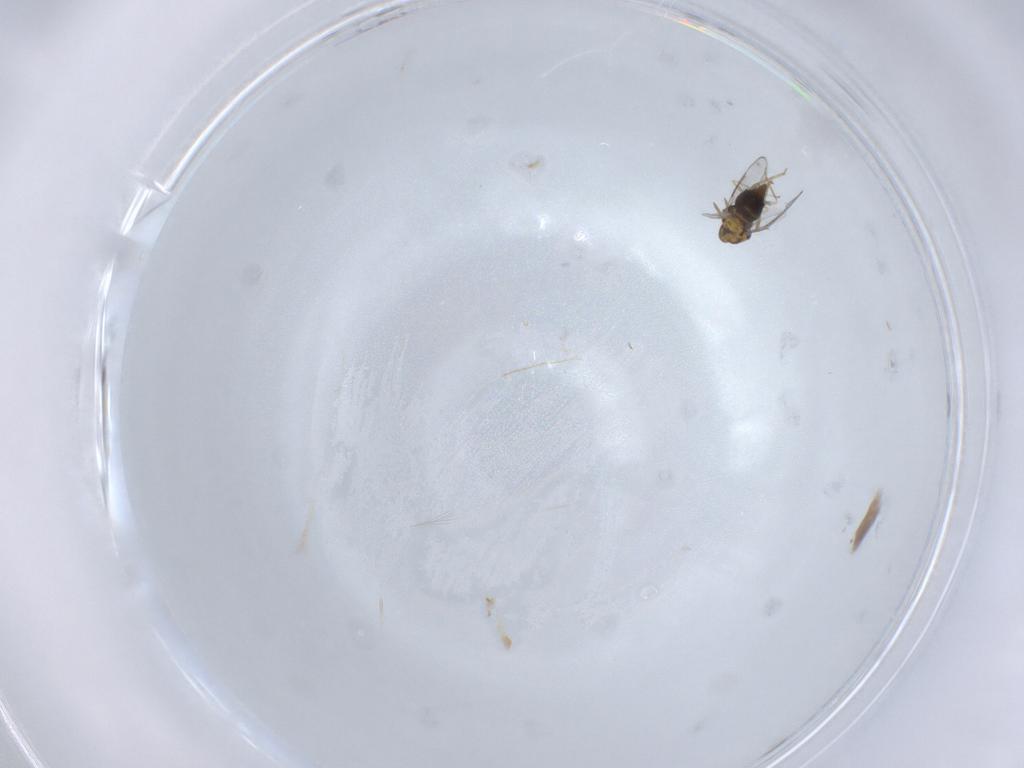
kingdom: Animalia
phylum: Arthropoda
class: Insecta
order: Hymenoptera
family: Aphelinidae
